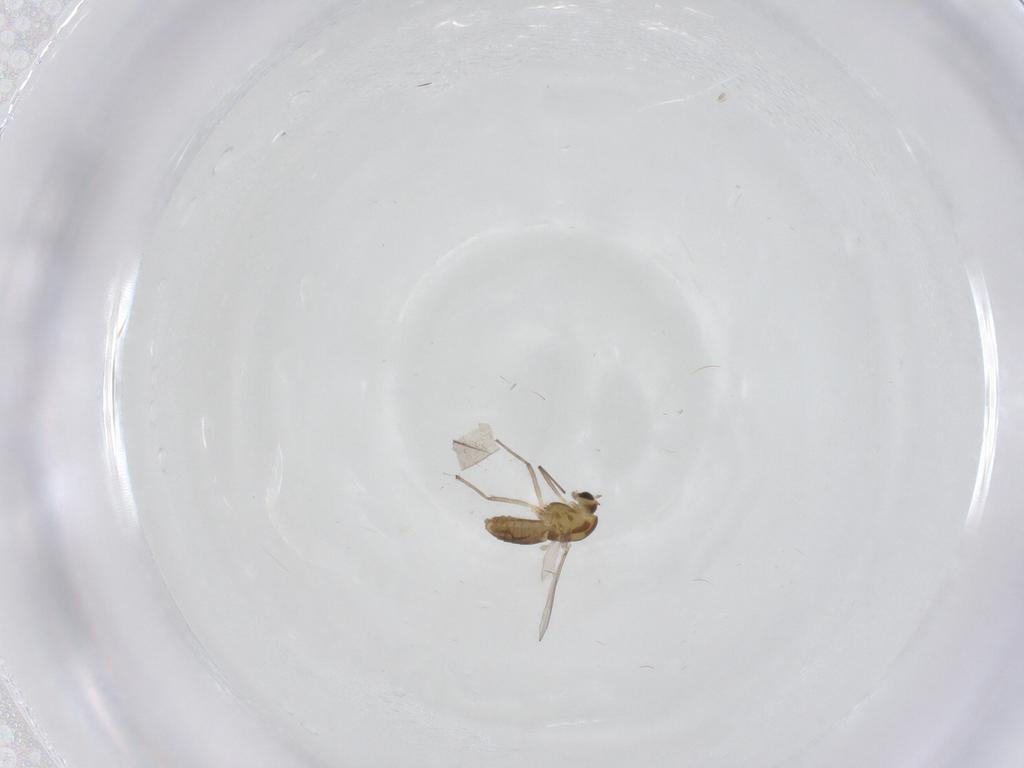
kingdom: Animalia
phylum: Arthropoda
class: Insecta
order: Diptera
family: Chironomidae
